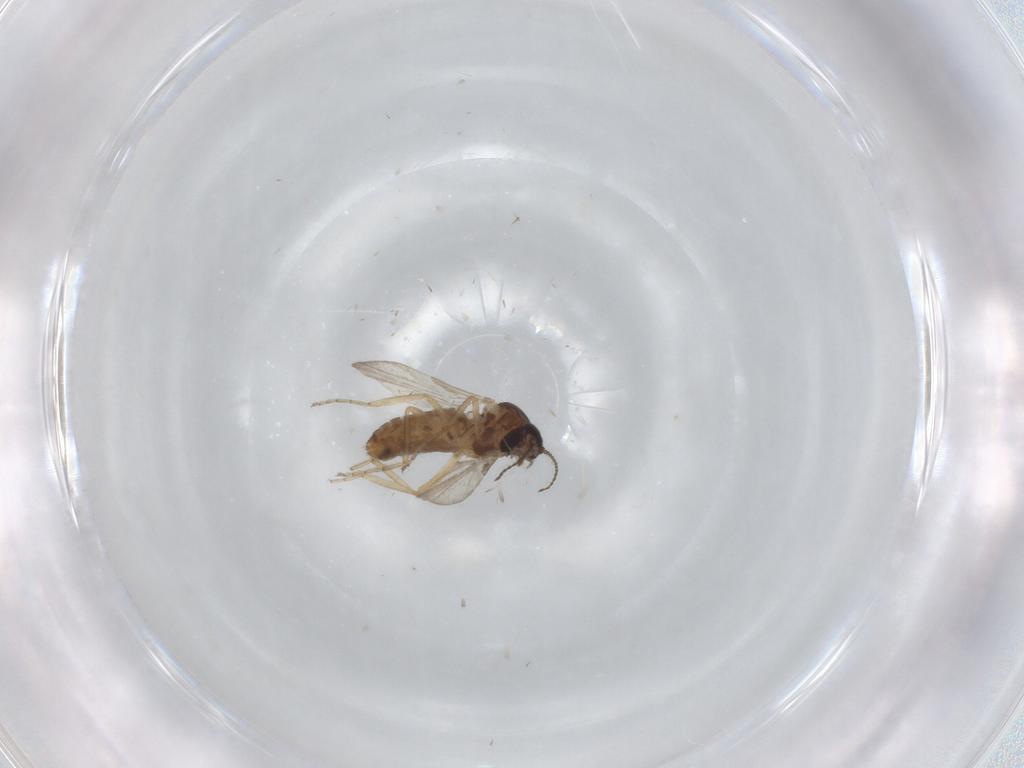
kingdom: Animalia
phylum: Arthropoda
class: Insecta
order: Diptera
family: Ceratopogonidae
